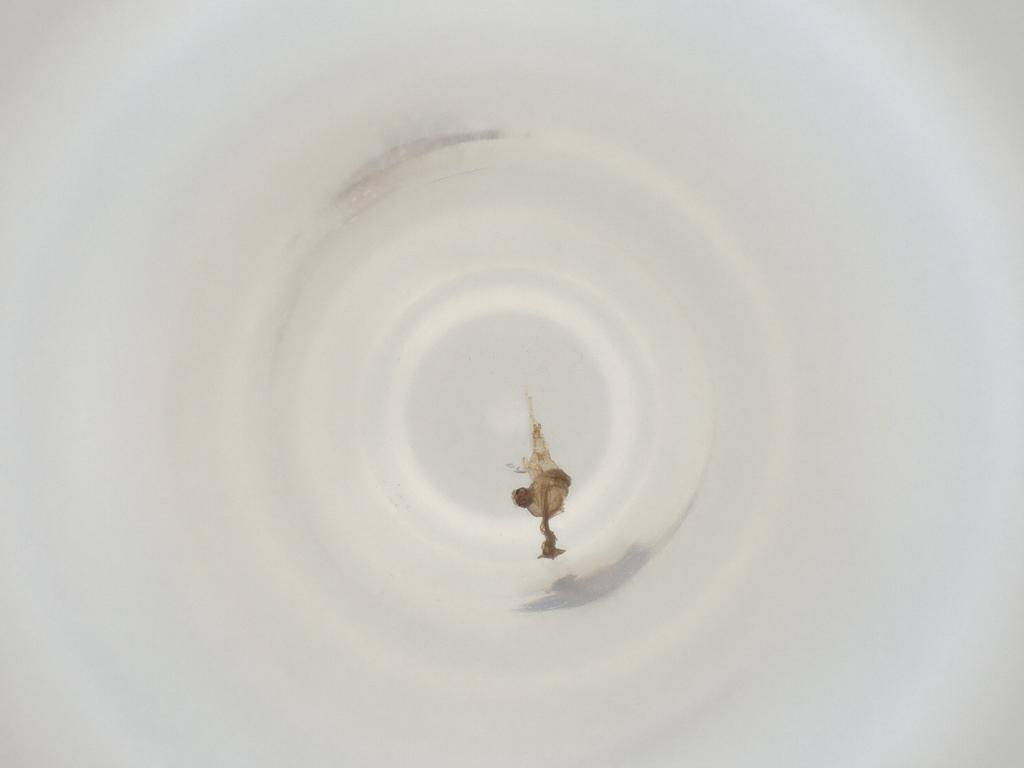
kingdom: Animalia
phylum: Arthropoda
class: Insecta
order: Diptera
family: Cecidomyiidae
